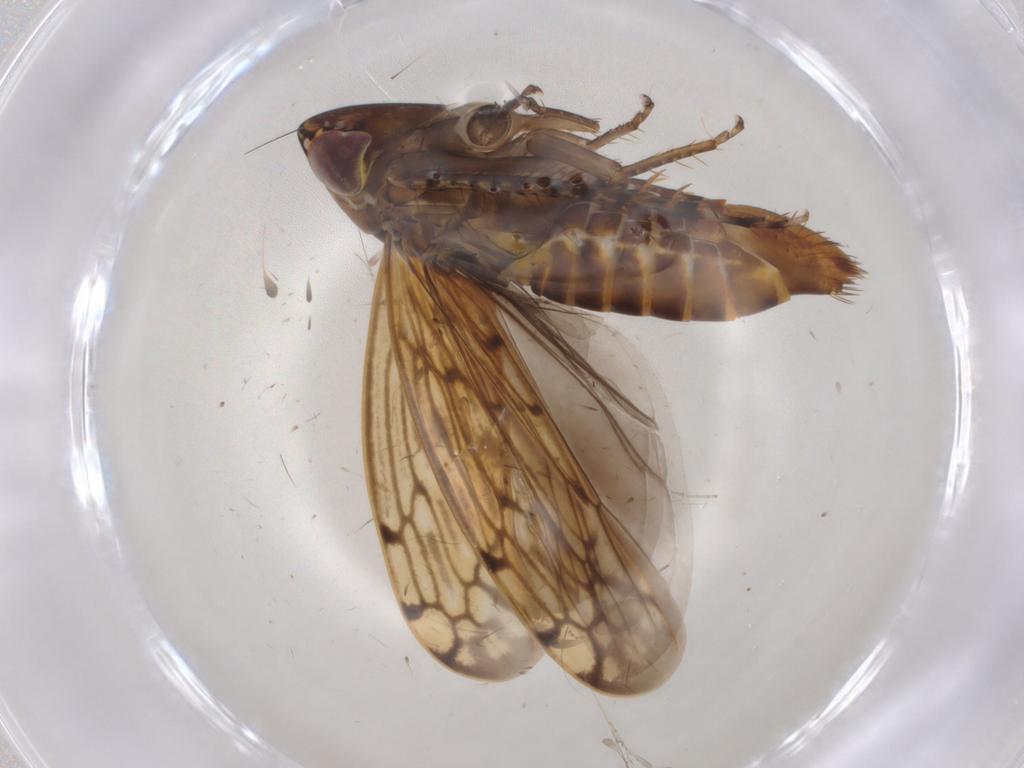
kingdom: Animalia
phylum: Arthropoda
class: Insecta
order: Hemiptera
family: Cicadellidae
